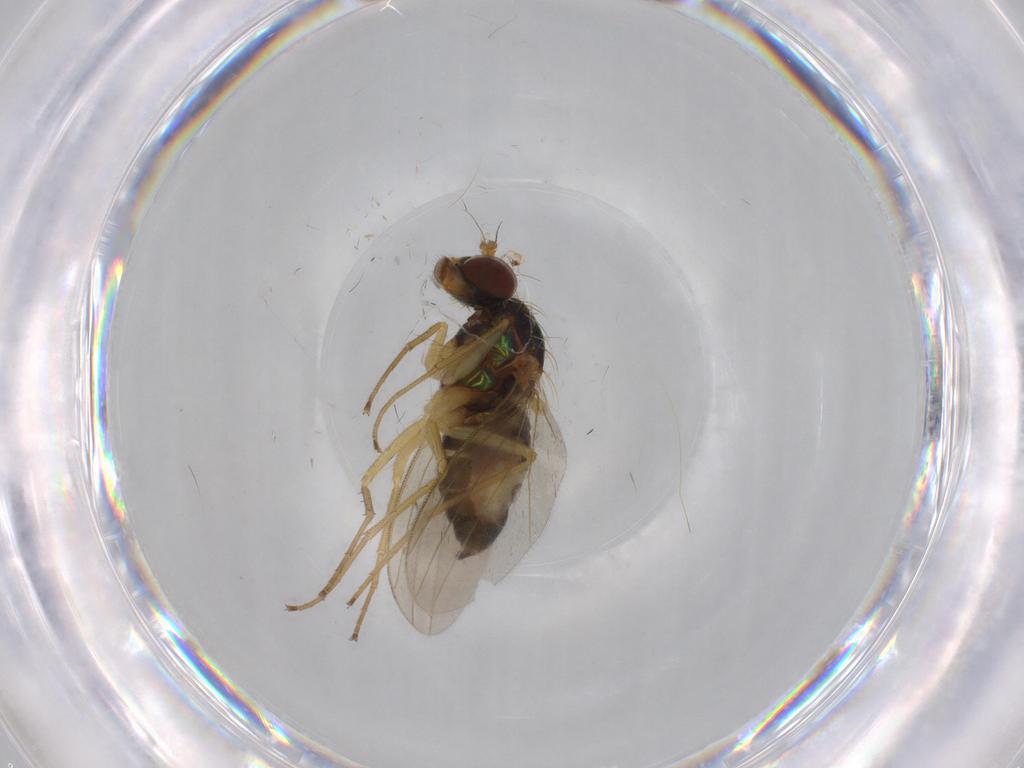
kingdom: Animalia
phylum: Arthropoda
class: Insecta
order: Diptera
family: Dolichopodidae
